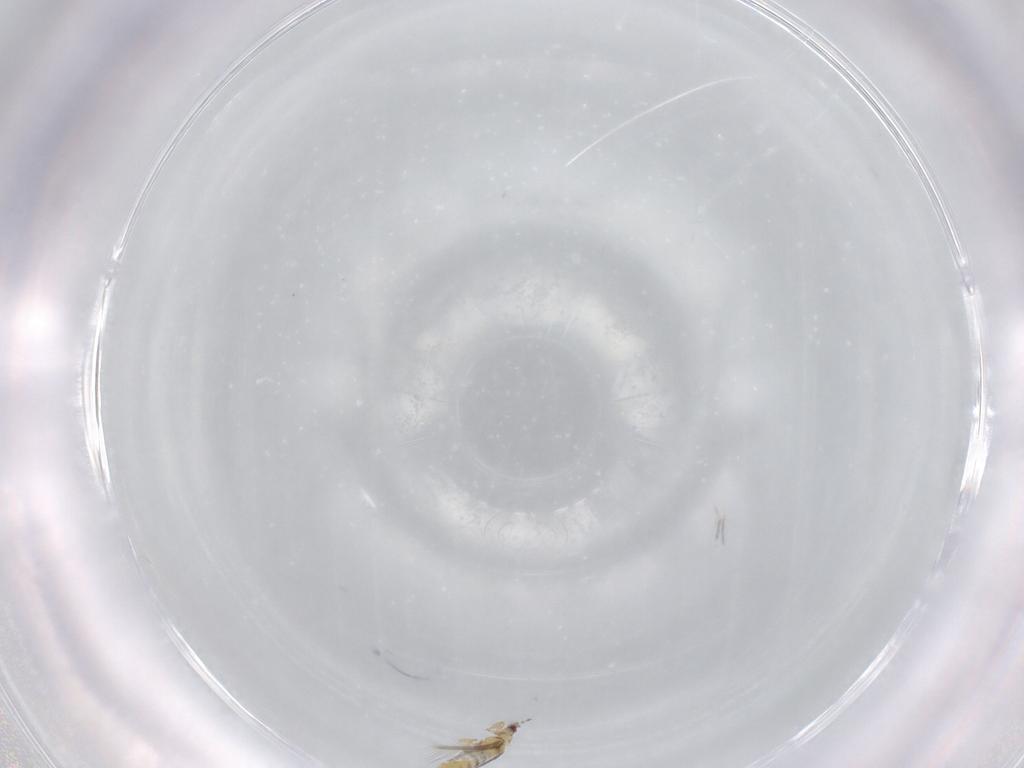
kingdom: Animalia
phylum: Arthropoda
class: Insecta
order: Thysanoptera
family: Thripidae
